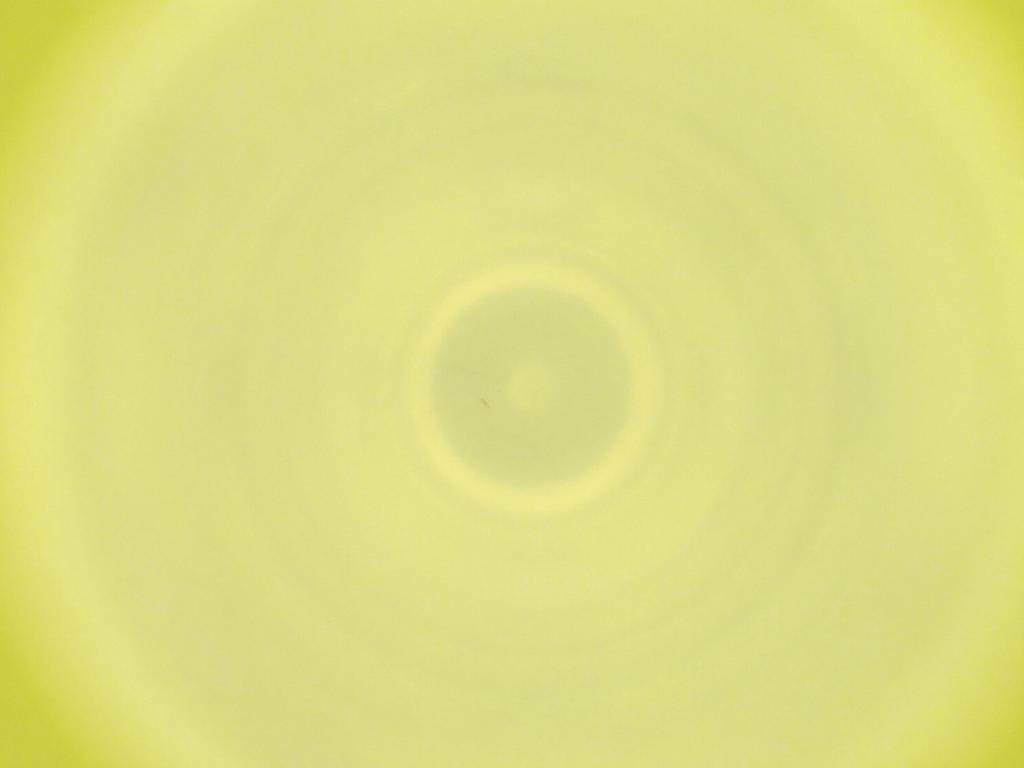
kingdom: Animalia
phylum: Arthropoda
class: Insecta
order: Diptera
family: Cecidomyiidae
